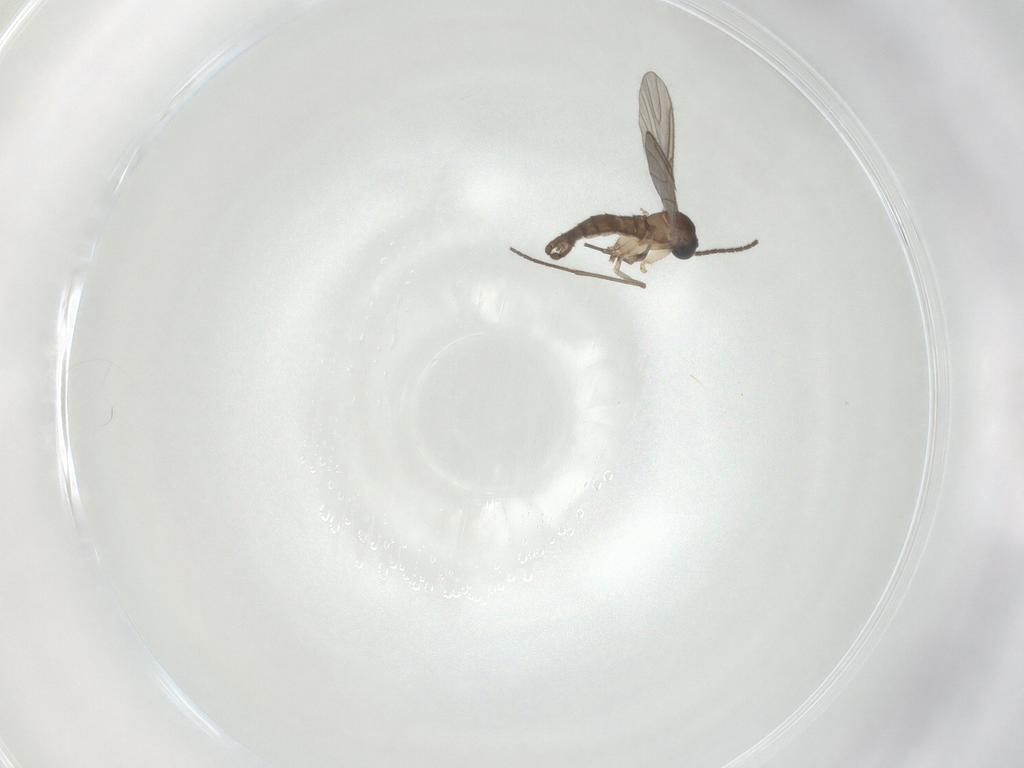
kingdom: Animalia
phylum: Arthropoda
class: Insecta
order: Diptera
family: Sciaridae
